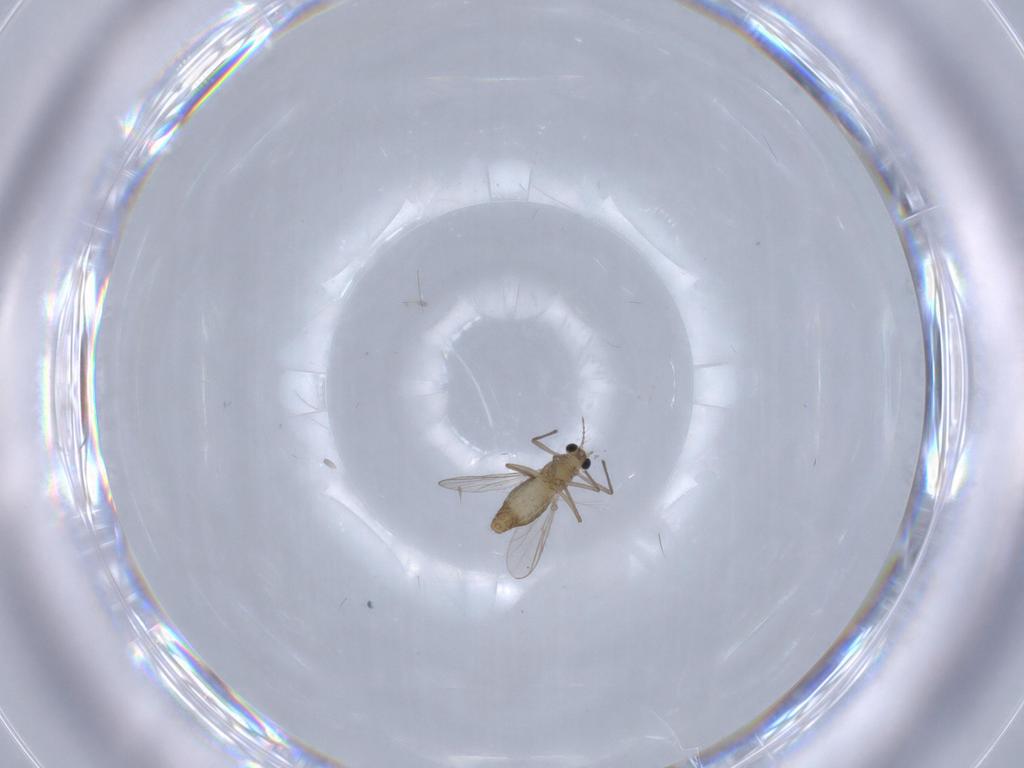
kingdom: Animalia
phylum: Arthropoda
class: Insecta
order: Diptera
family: Chironomidae
